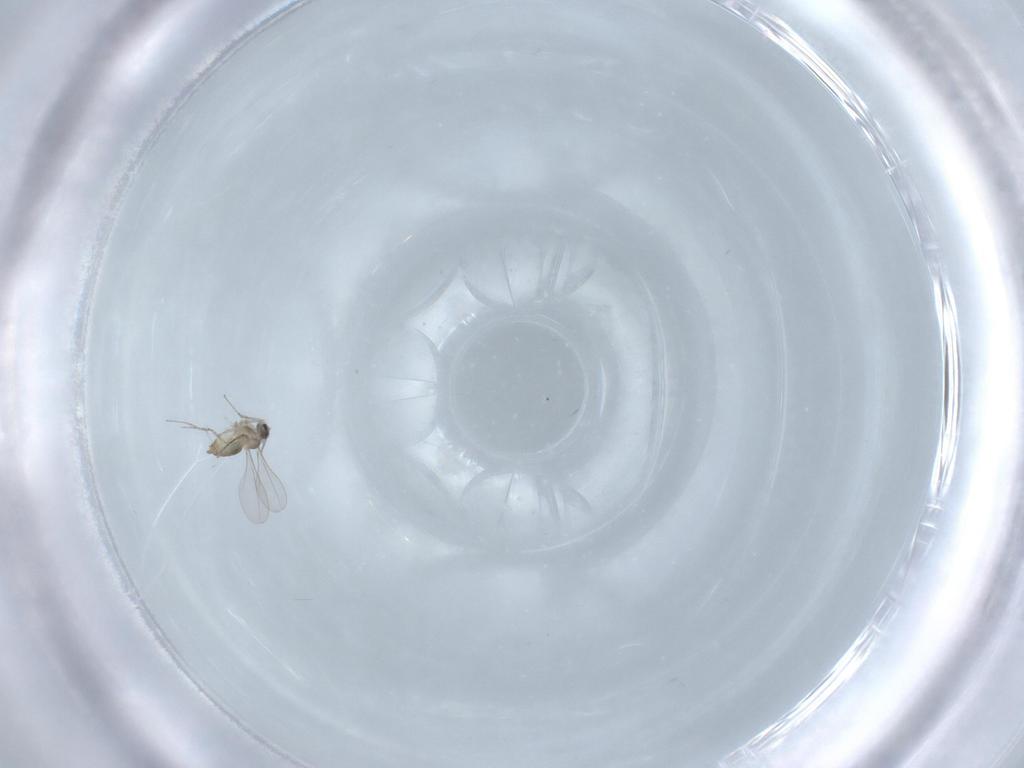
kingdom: Animalia
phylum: Arthropoda
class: Insecta
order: Diptera
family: Cecidomyiidae
